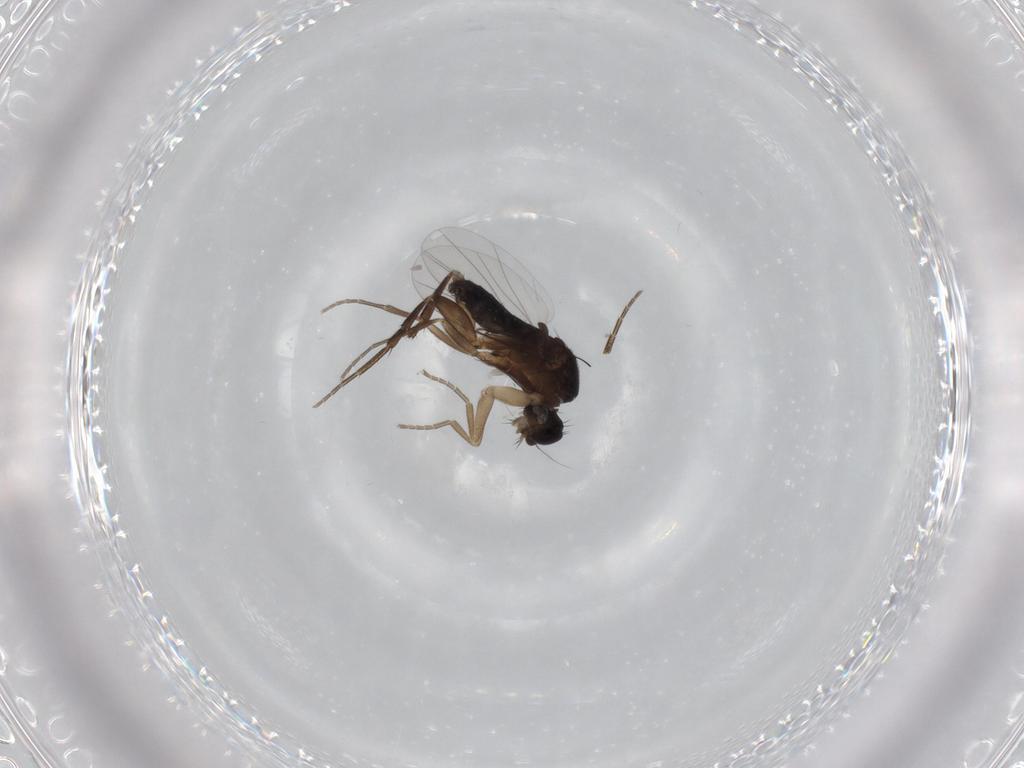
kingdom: Animalia
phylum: Arthropoda
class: Insecta
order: Diptera
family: Phoridae
